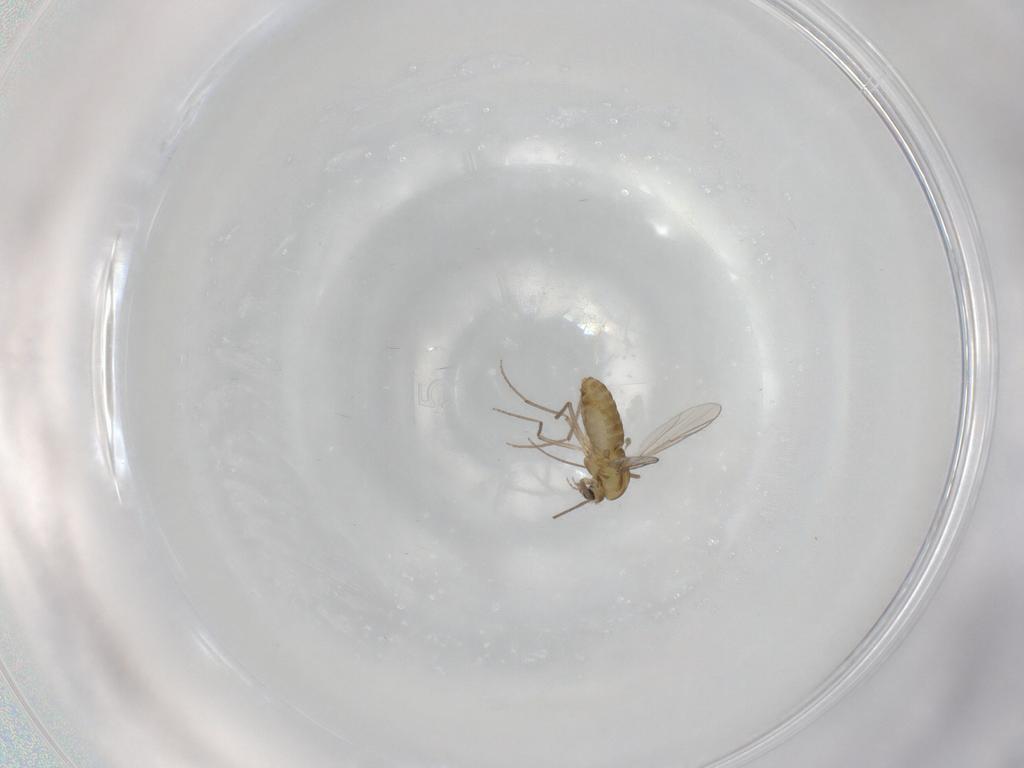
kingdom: Animalia
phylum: Arthropoda
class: Insecta
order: Diptera
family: Chironomidae
